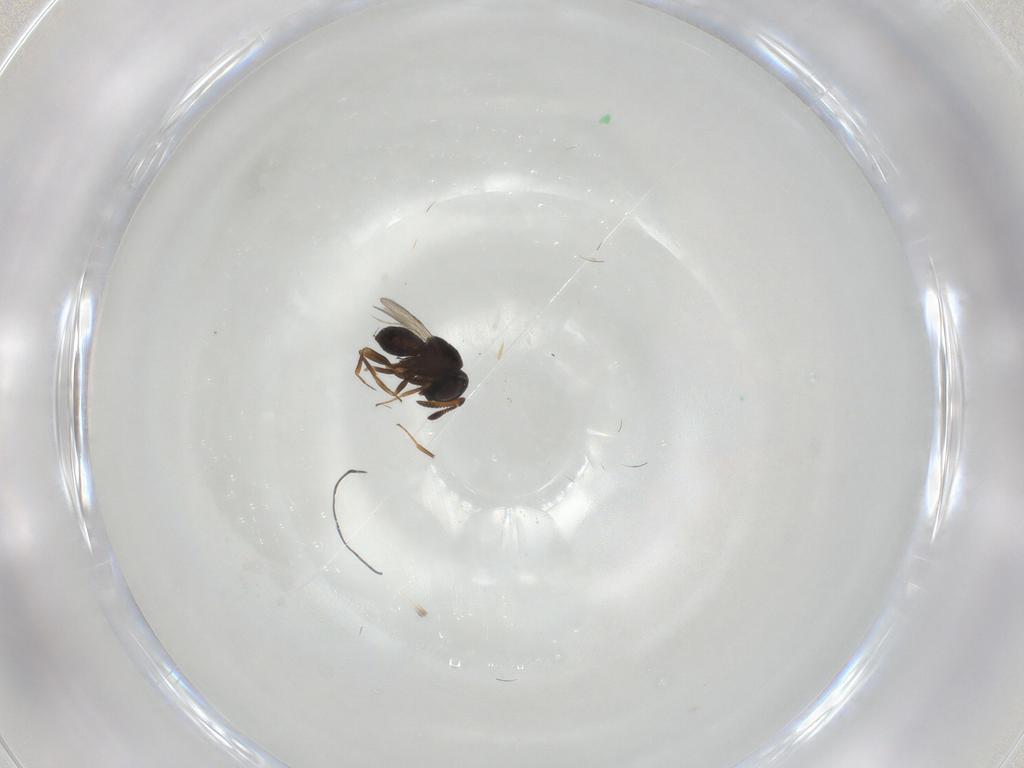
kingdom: Animalia
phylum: Arthropoda
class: Insecta
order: Hymenoptera
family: Scelionidae
